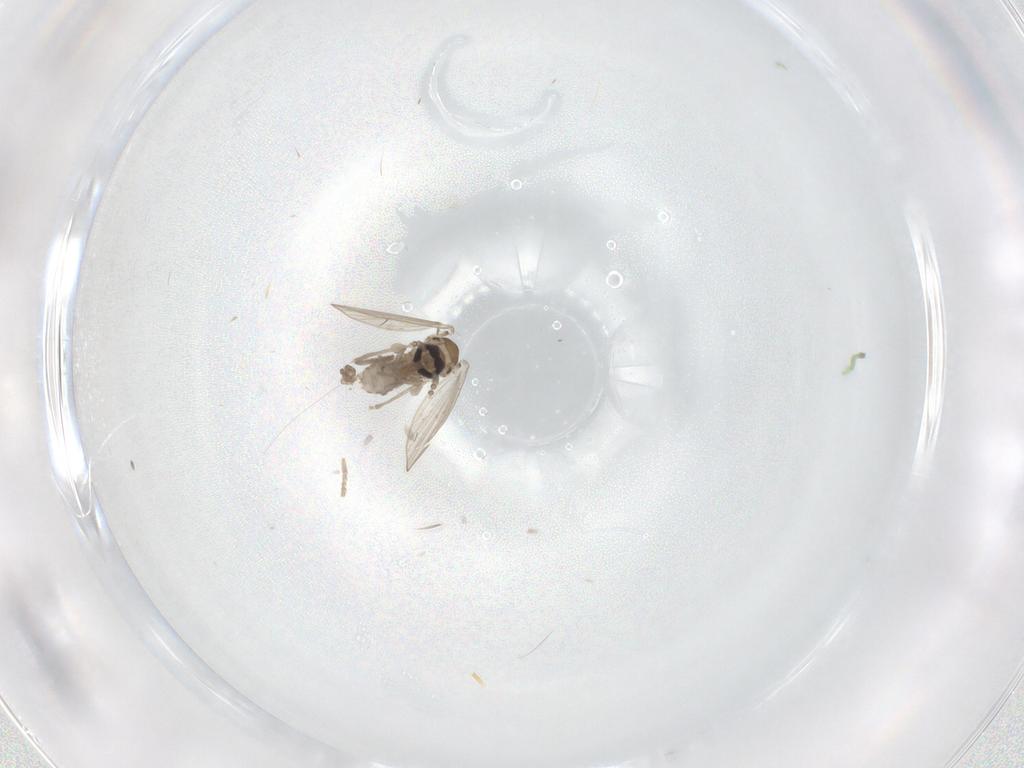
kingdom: Animalia
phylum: Arthropoda
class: Insecta
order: Diptera
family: Psychodidae
